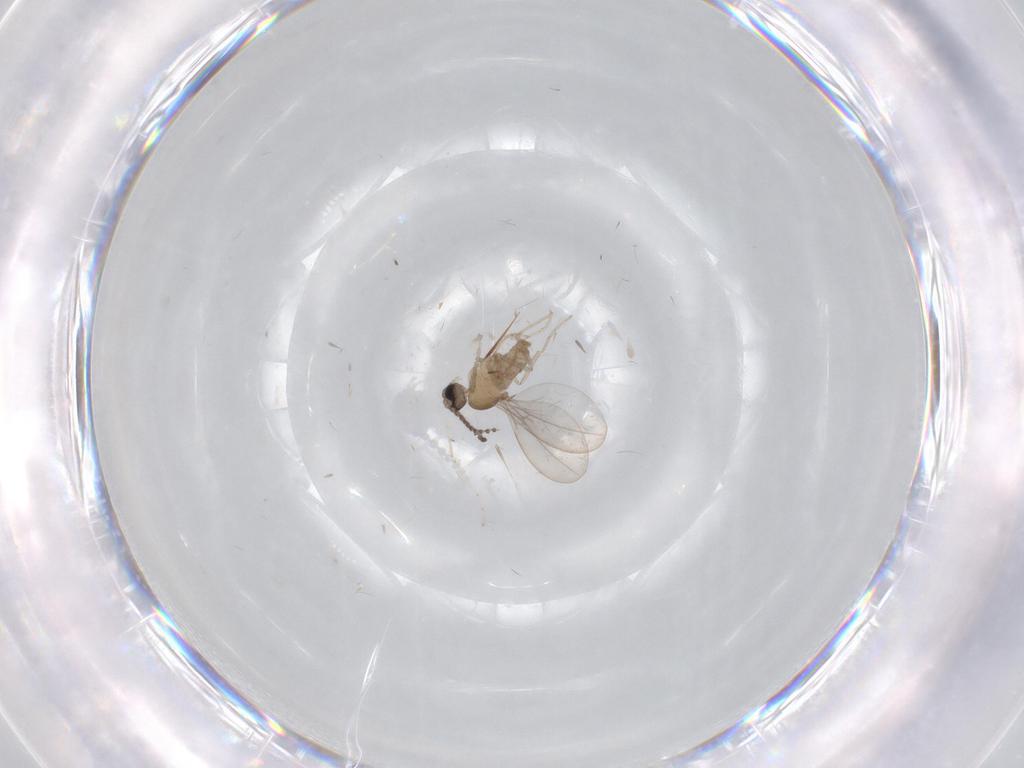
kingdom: Animalia
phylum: Arthropoda
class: Insecta
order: Diptera
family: Cecidomyiidae
